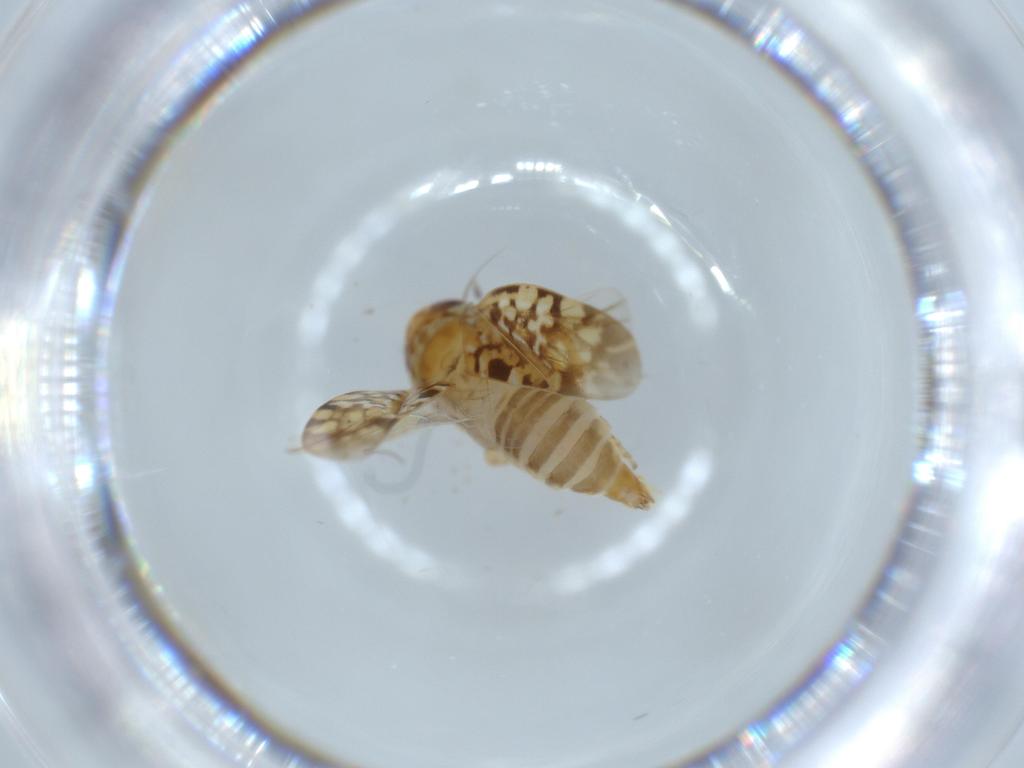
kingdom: Animalia
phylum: Arthropoda
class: Insecta
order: Hemiptera
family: Cicadellidae
